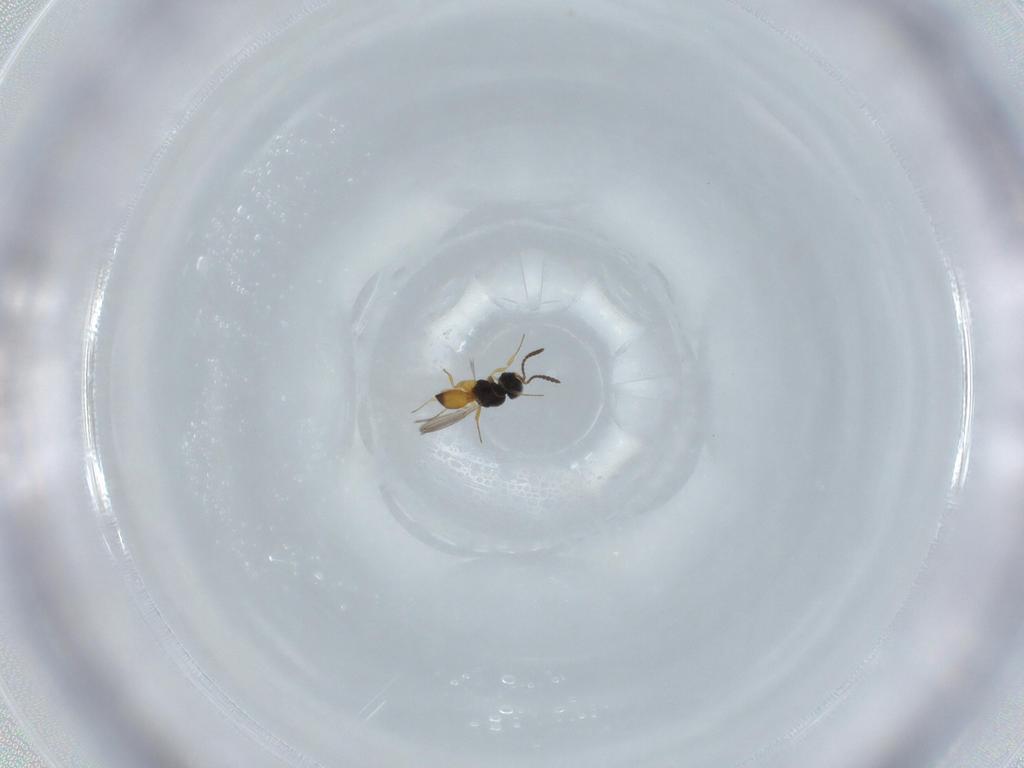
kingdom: Animalia
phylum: Arthropoda
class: Insecta
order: Hymenoptera
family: Scelionidae
